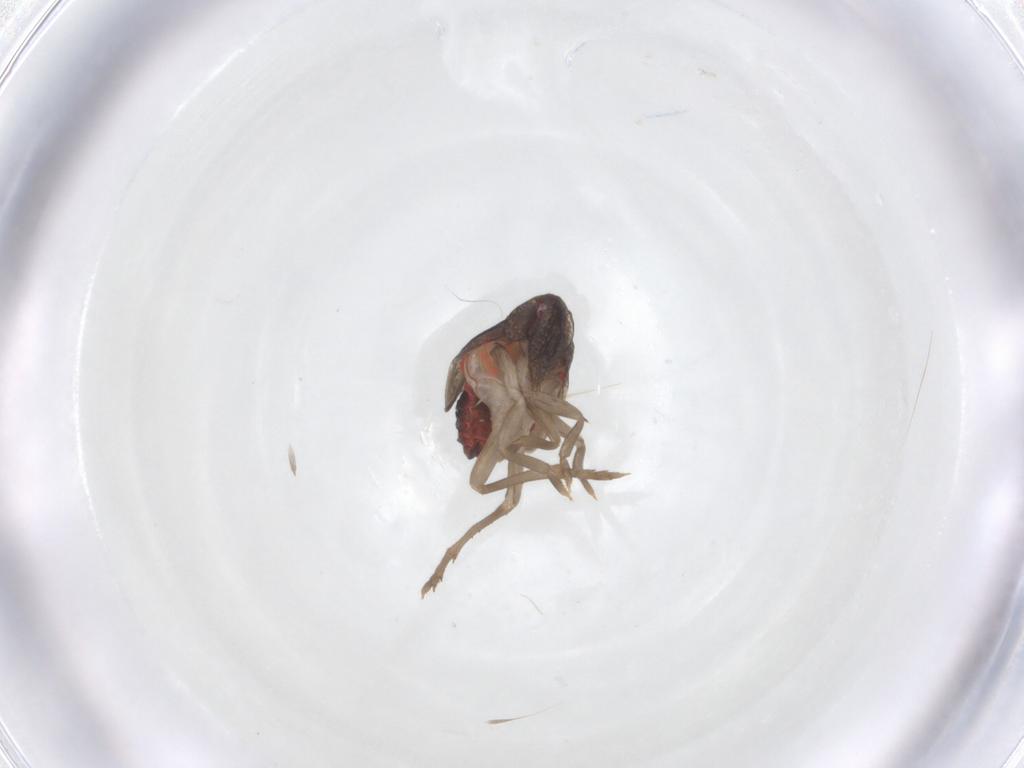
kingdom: Animalia
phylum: Arthropoda
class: Insecta
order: Hemiptera
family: Derbidae
